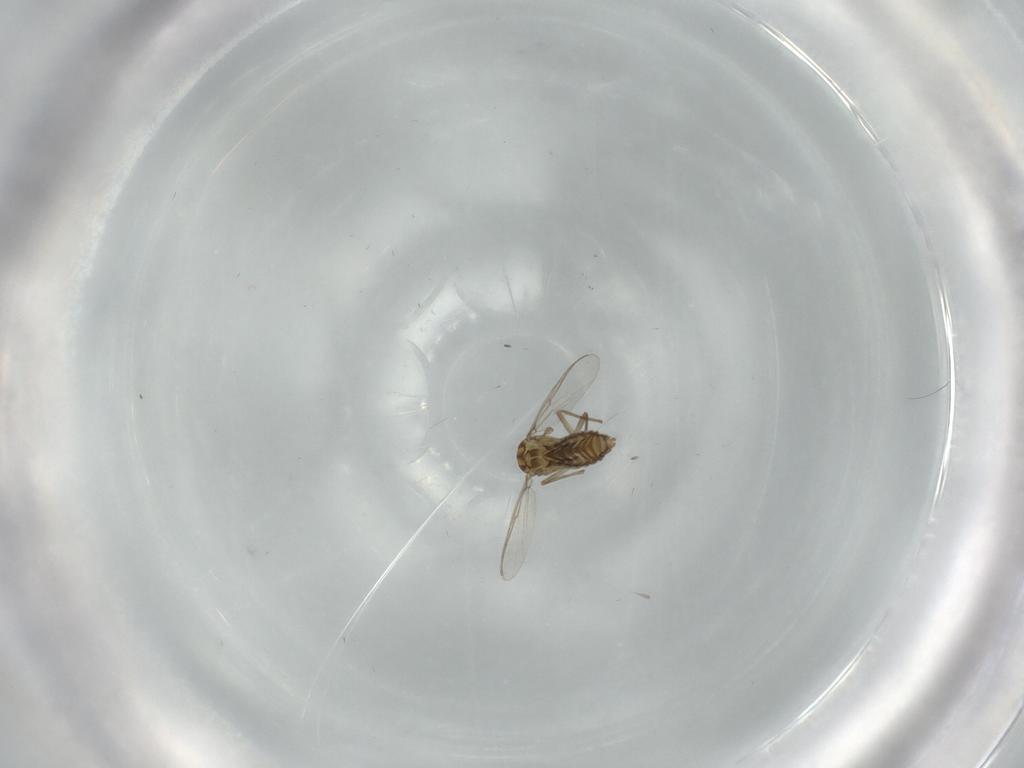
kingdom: Animalia
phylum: Arthropoda
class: Insecta
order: Diptera
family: Chironomidae
